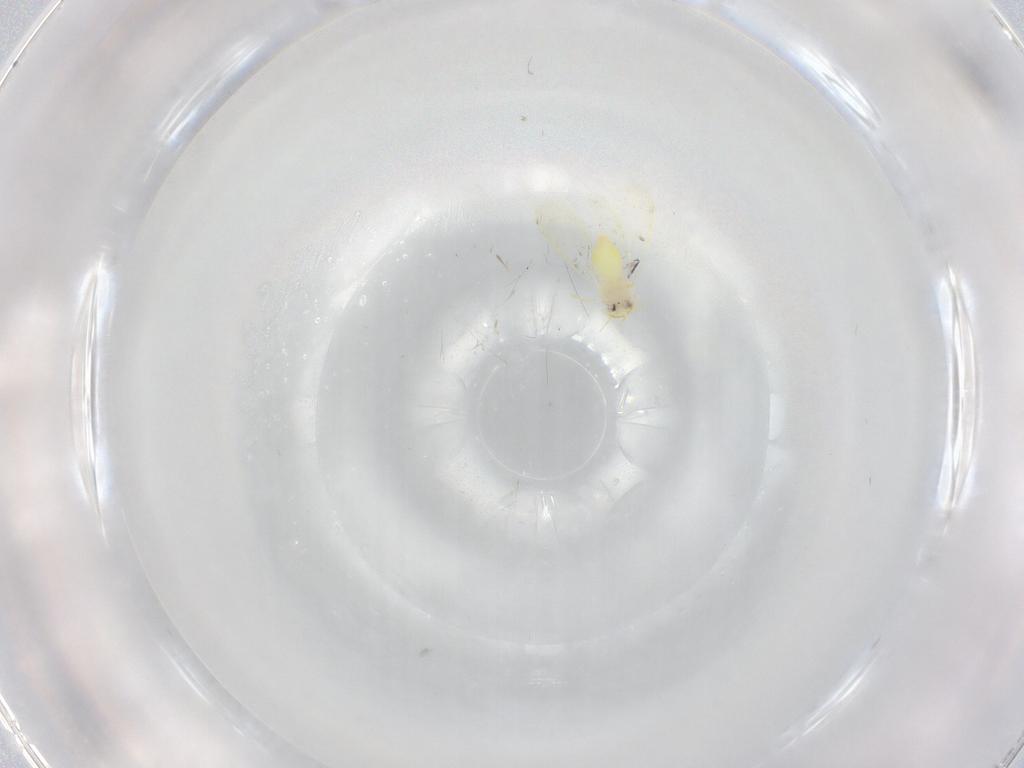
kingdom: Animalia
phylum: Arthropoda
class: Insecta
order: Hemiptera
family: Aleyrodidae
